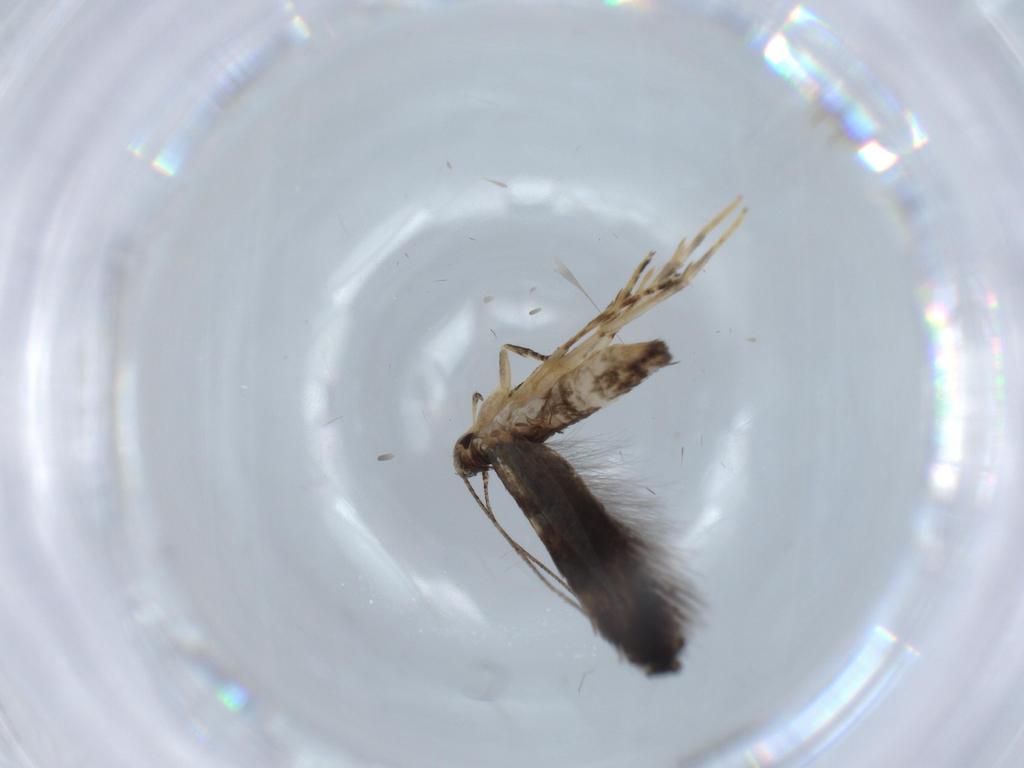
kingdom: Animalia
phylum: Arthropoda
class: Insecta
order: Lepidoptera
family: Gelechiidae
